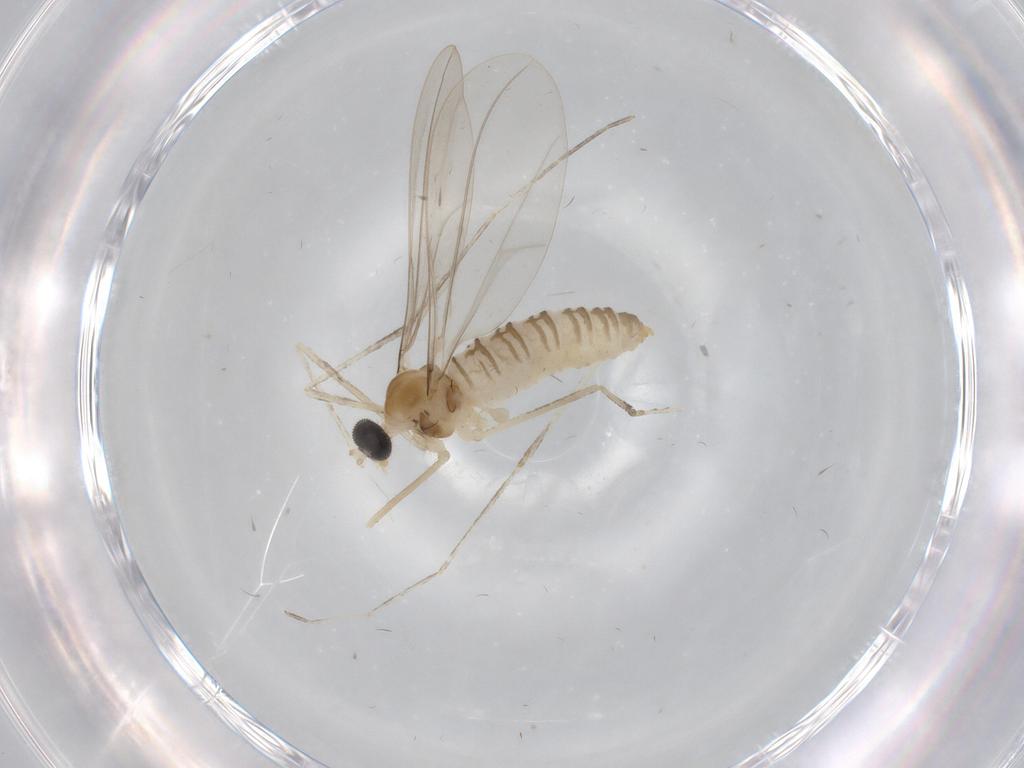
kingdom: Animalia
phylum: Arthropoda
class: Insecta
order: Diptera
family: Cecidomyiidae
